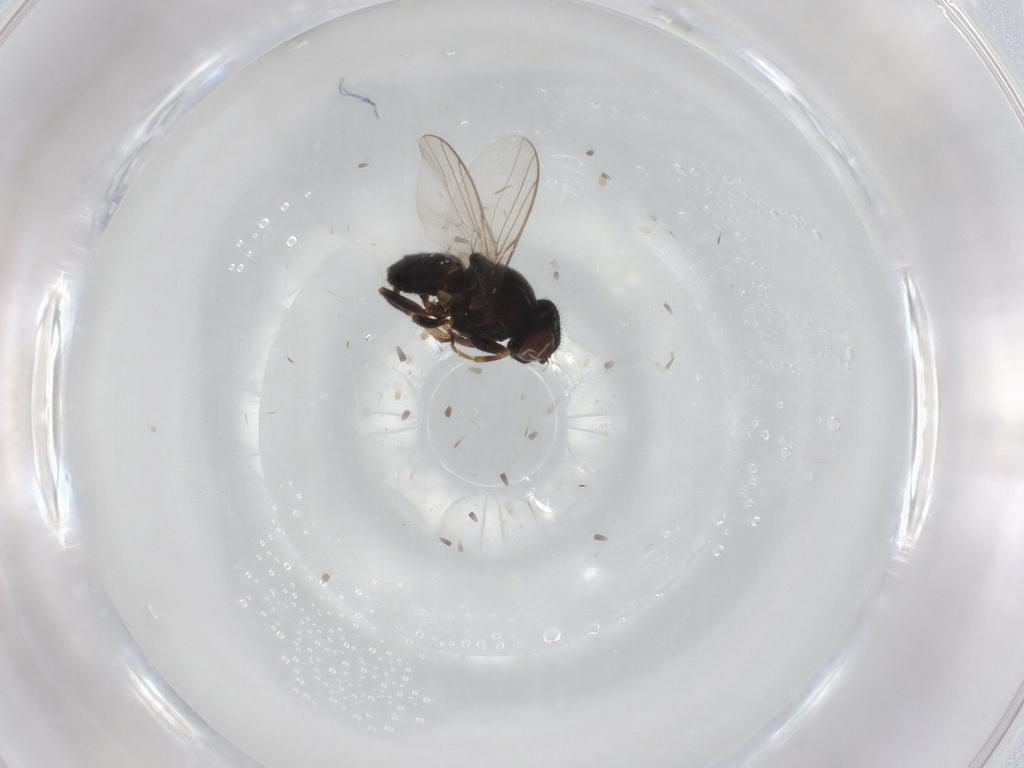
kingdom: Animalia
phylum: Arthropoda
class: Insecta
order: Diptera
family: Chloropidae
